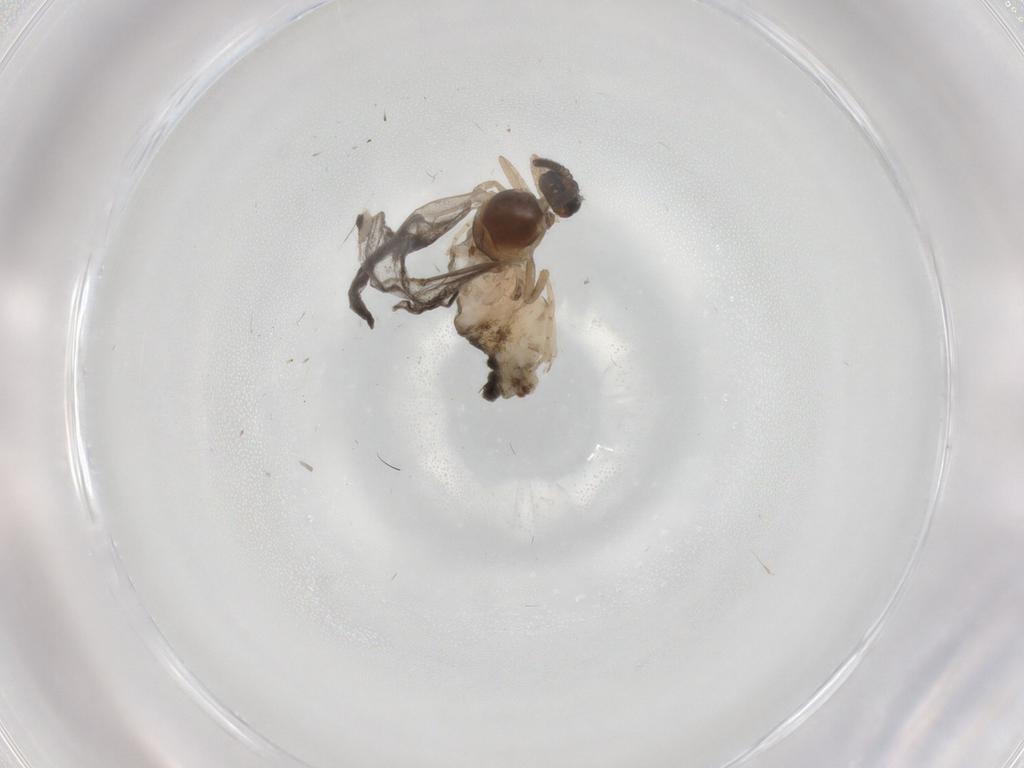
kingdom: Animalia
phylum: Arthropoda
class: Insecta
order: Diptera
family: Cecidomyiidae
